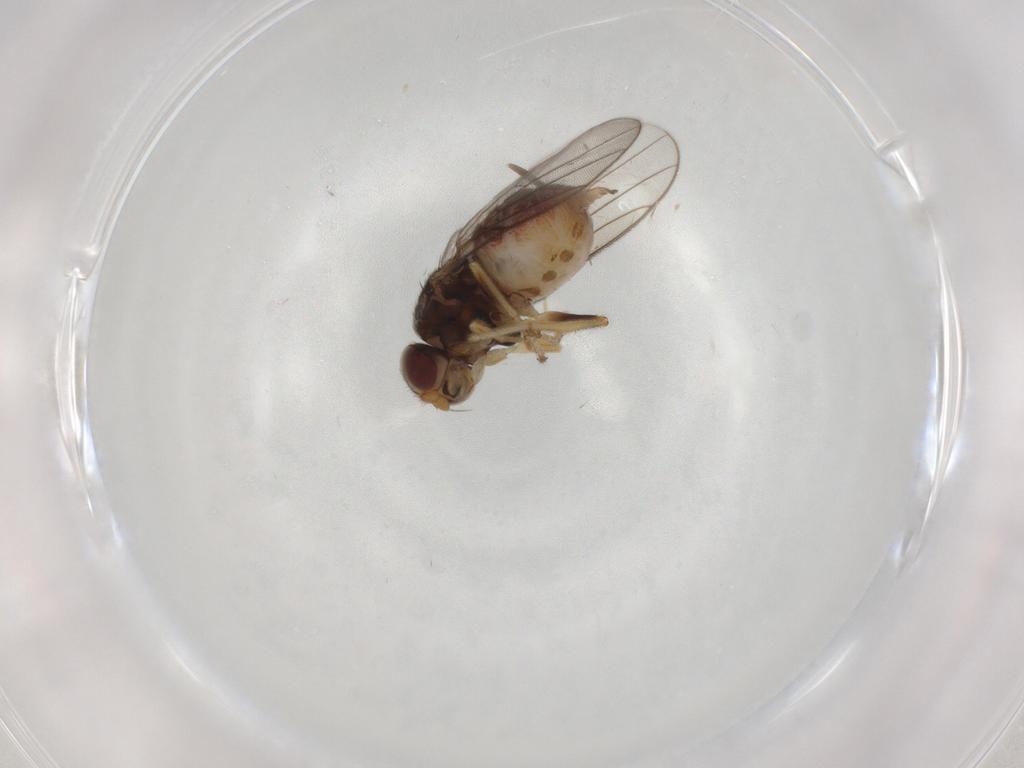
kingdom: Animalia
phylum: Arthropoda
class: Insecta
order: Diptera
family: Chloropidae
